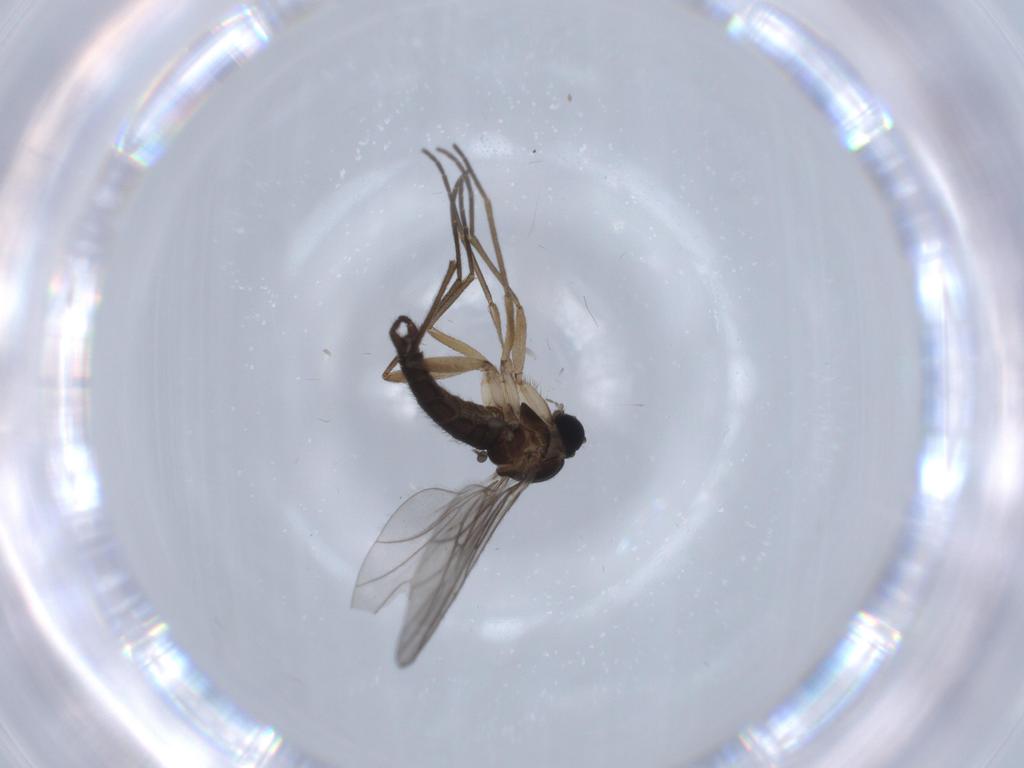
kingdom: Animalia
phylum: Arthropoda
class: Insecta
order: Diptera
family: Sciaridae
